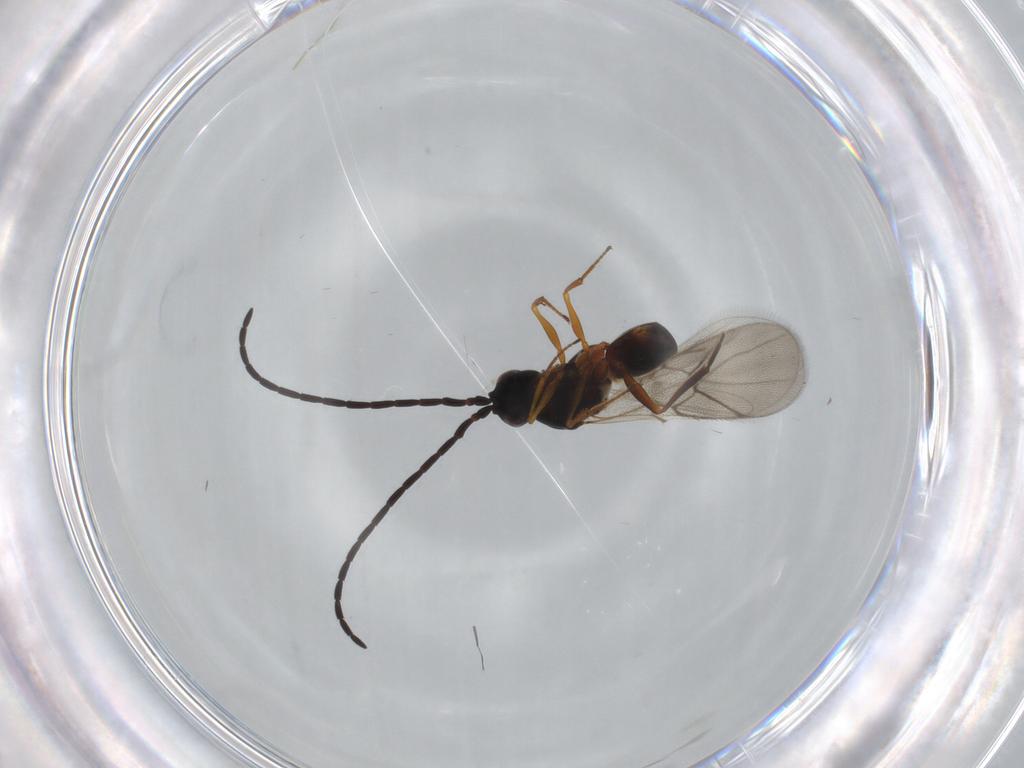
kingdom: Animalia
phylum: Arthropoda
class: Insecta
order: Hymenoptera
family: Figitidae
